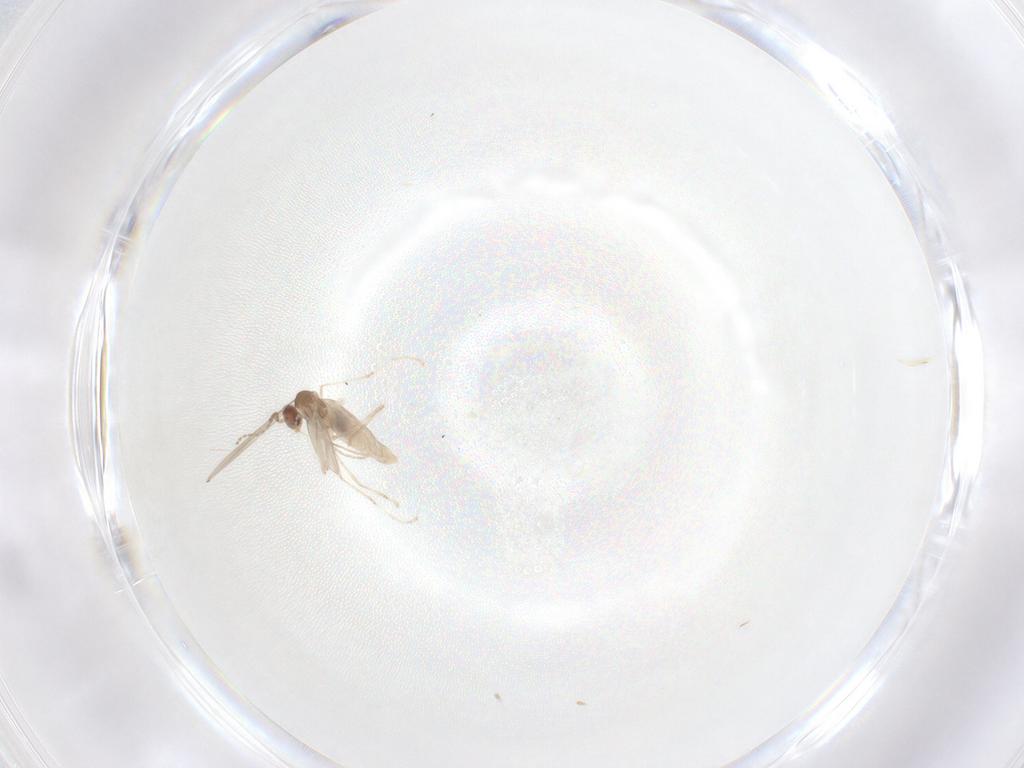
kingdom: Animalia
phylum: Arthropoda
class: Insecta
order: Diptera
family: Cecidomyiidae
